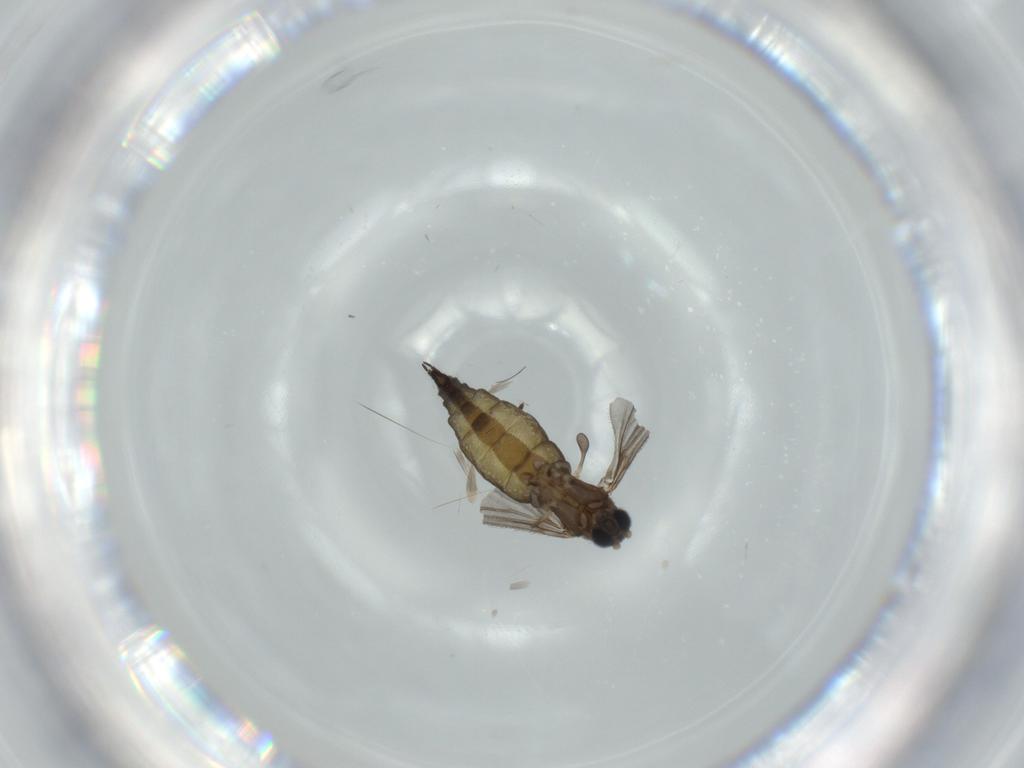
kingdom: Animalia
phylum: Arthropoda
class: Insecta
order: Diptera
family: Sciaridae
